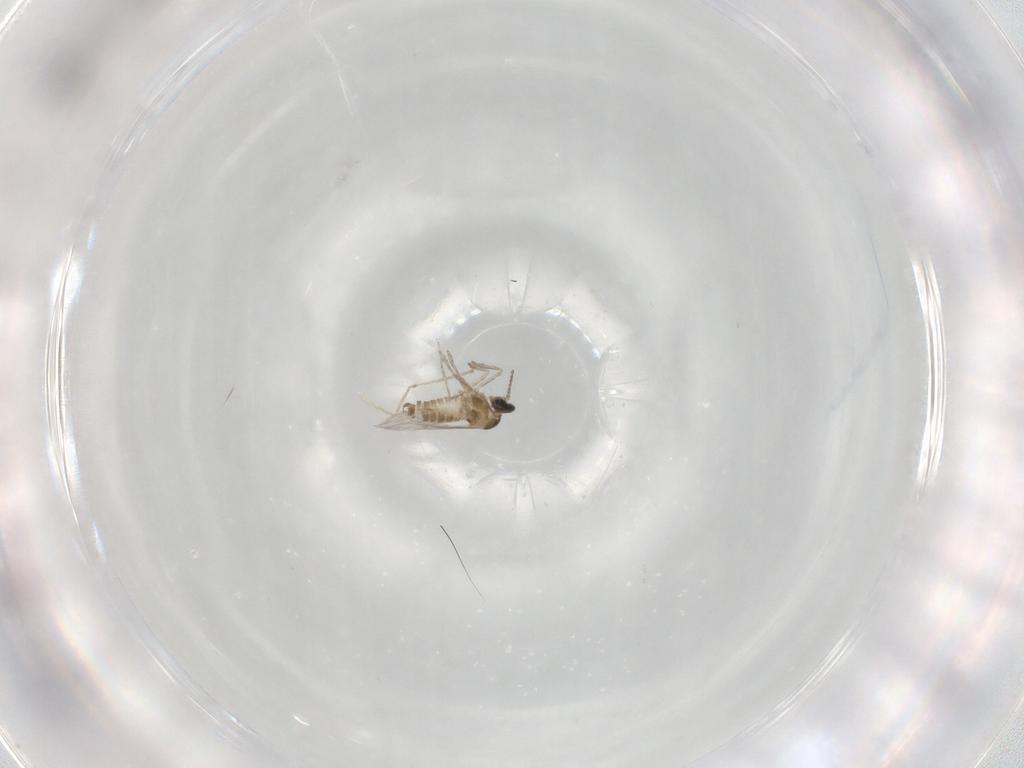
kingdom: Animalia
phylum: Arthropoda
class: Insecta
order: Diptera
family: Cecidomyiidae
